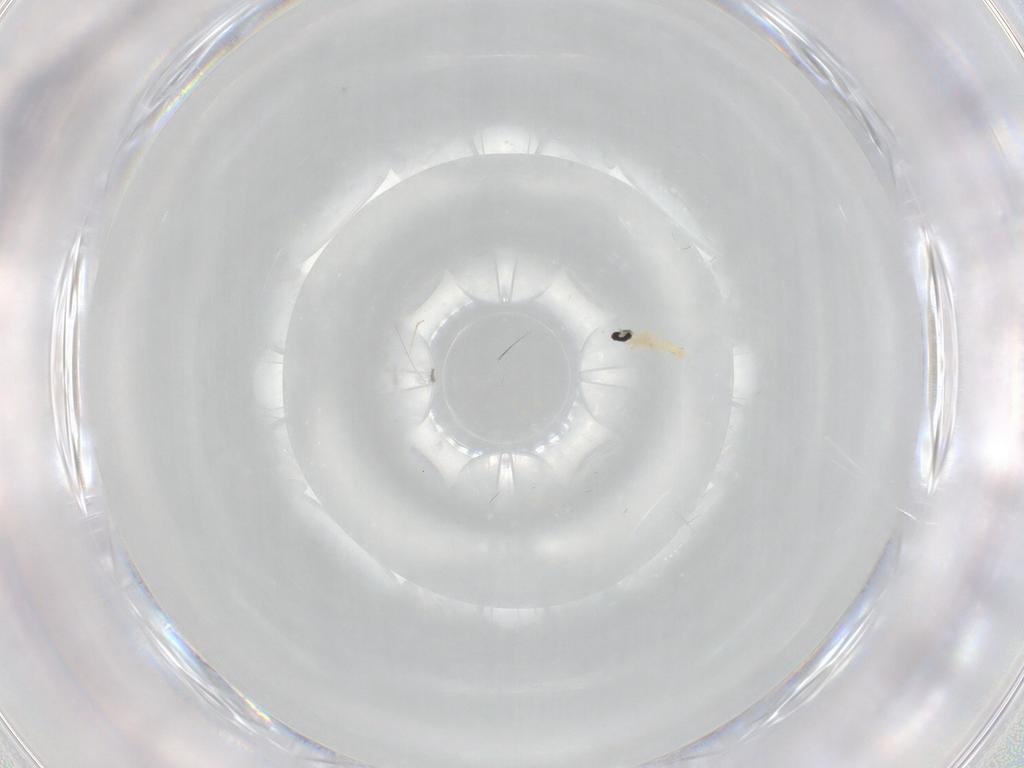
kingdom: Animalia
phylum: Arthropoda
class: Insecta
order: Diptera
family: Cecidomyiidae
